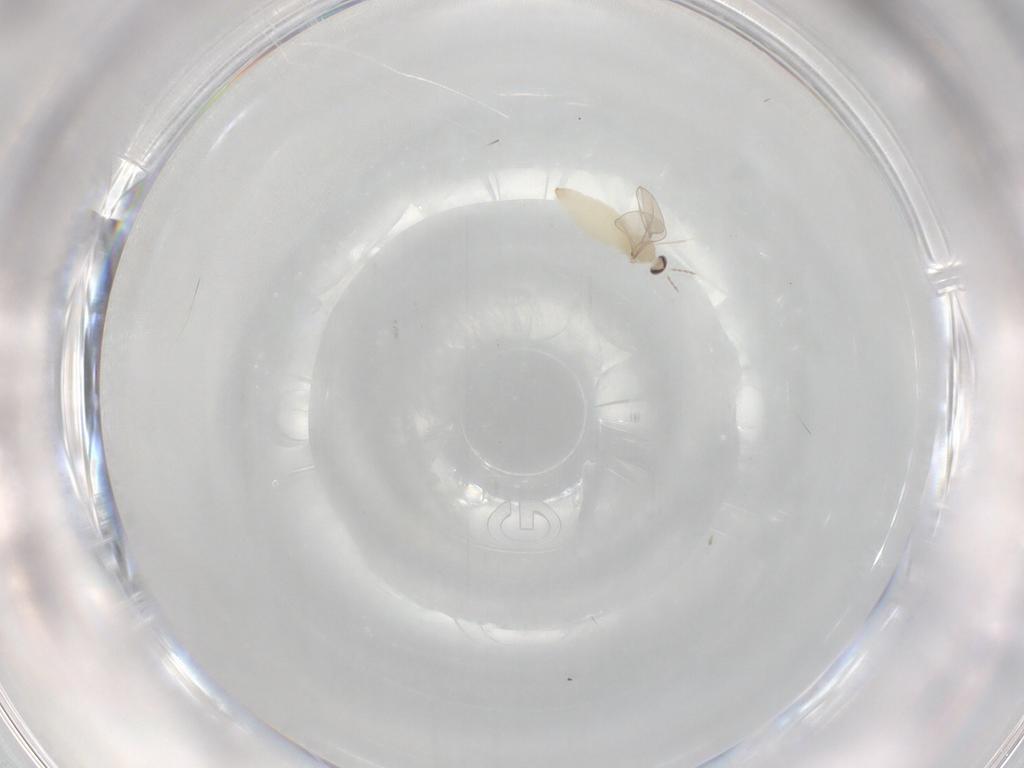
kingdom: Animalia
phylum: Arthropoda
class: Insecta
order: Diptera
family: Cecidomyiidae
